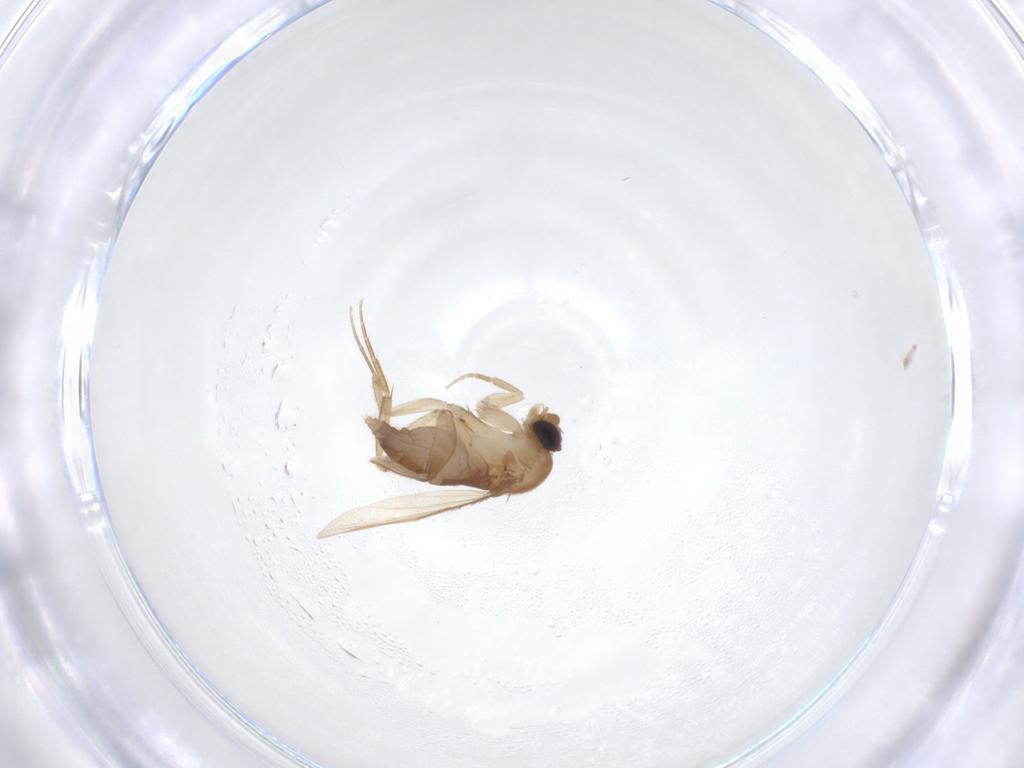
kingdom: Animalia
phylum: Arthropoda
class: Insecta
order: Diptera
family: Phoridae
